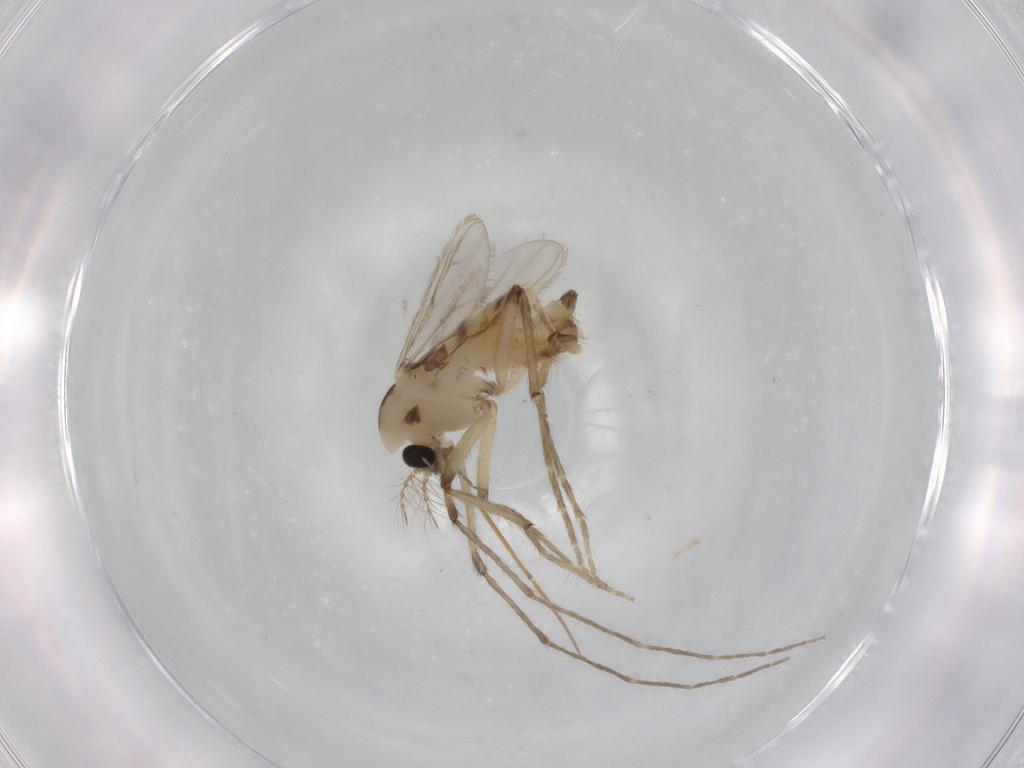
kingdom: Animalia
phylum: Arthropoda
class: Insecta
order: Diptera
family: Chironomidae
